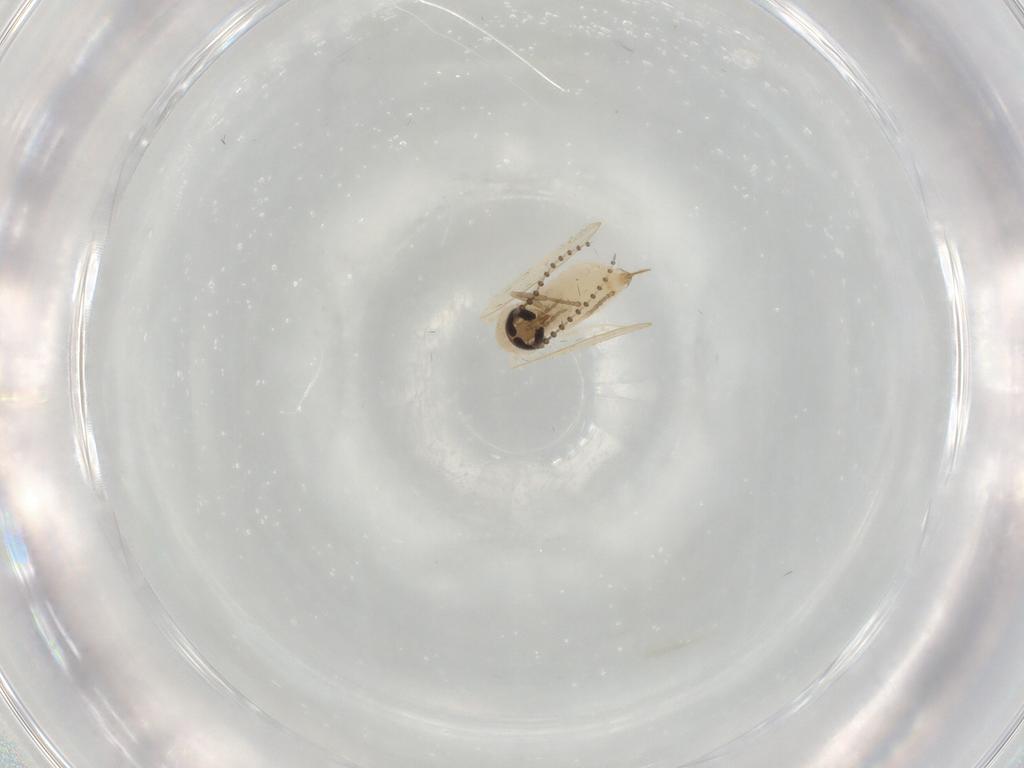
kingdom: Animalia
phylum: Arthropoda
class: Insecta
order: Diptera
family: Psychodidae
